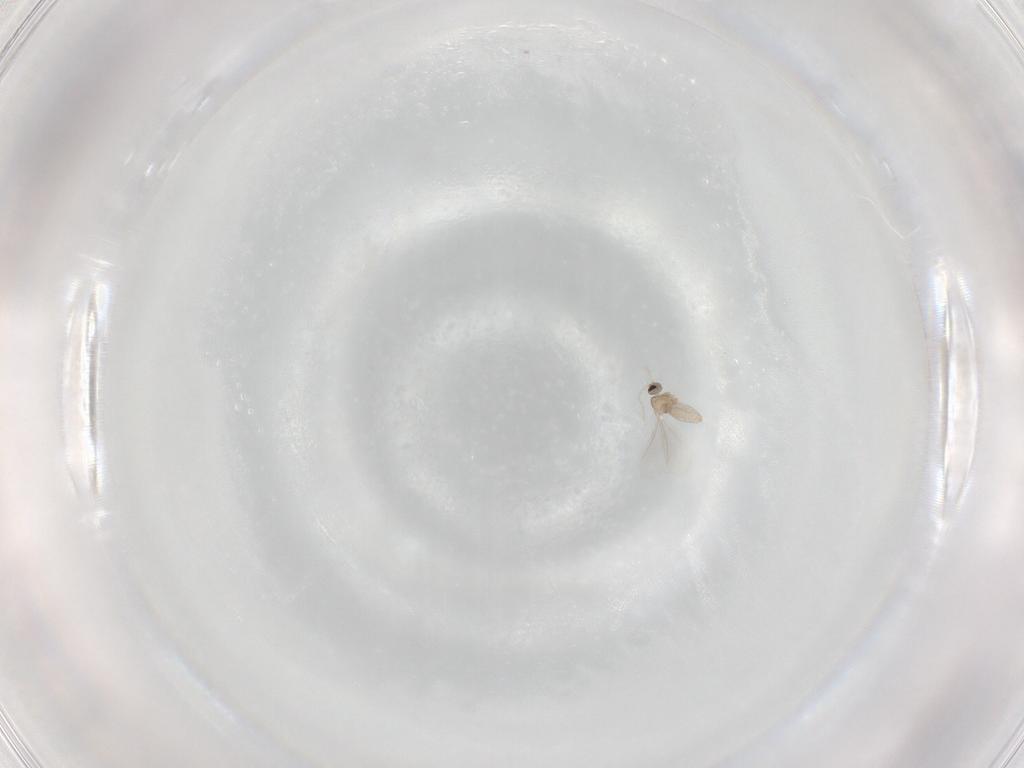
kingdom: Animalia
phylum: Arthropoda
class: Insecta
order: Diptera
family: Cecidomyiidae
